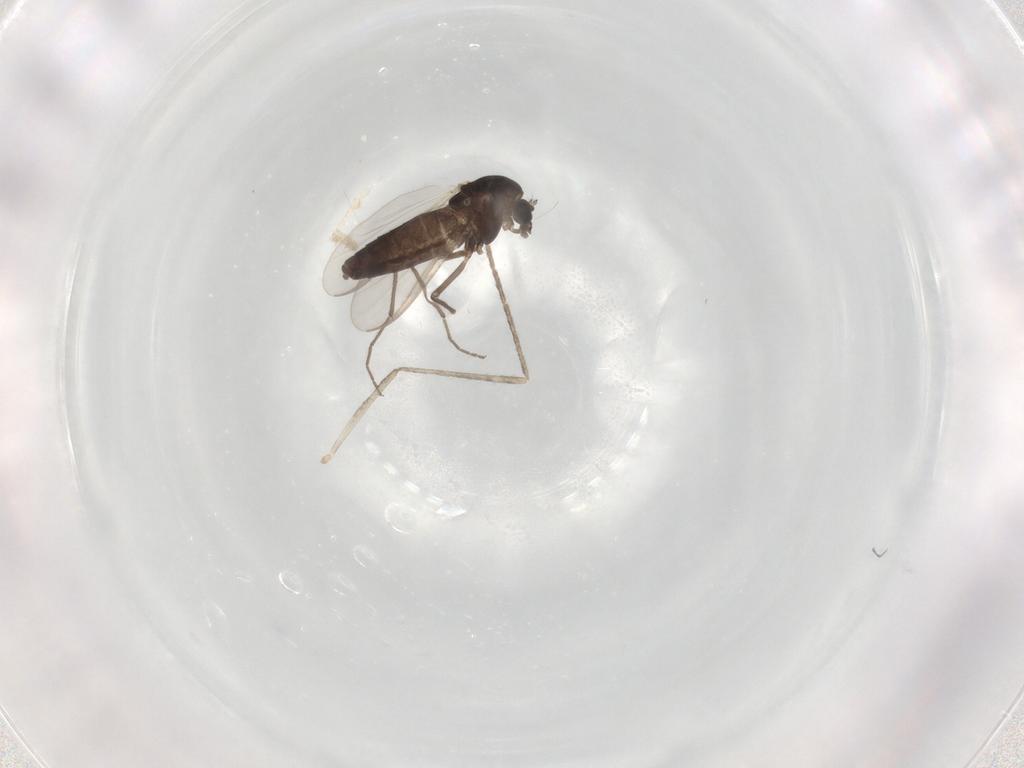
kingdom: Animalia
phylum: Arthropoda
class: Insecta
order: Diptera
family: Cecidomyiidae
